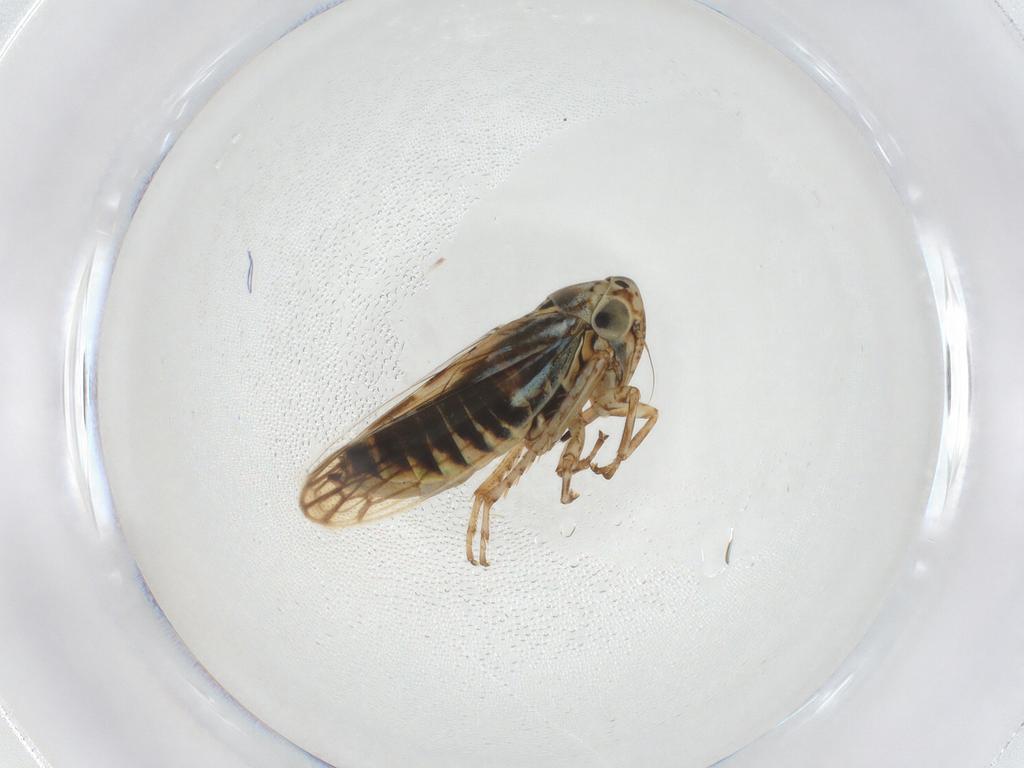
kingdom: Animalia
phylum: Arthropoda
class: Insecta
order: Hemiptera
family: Cicadellidae
